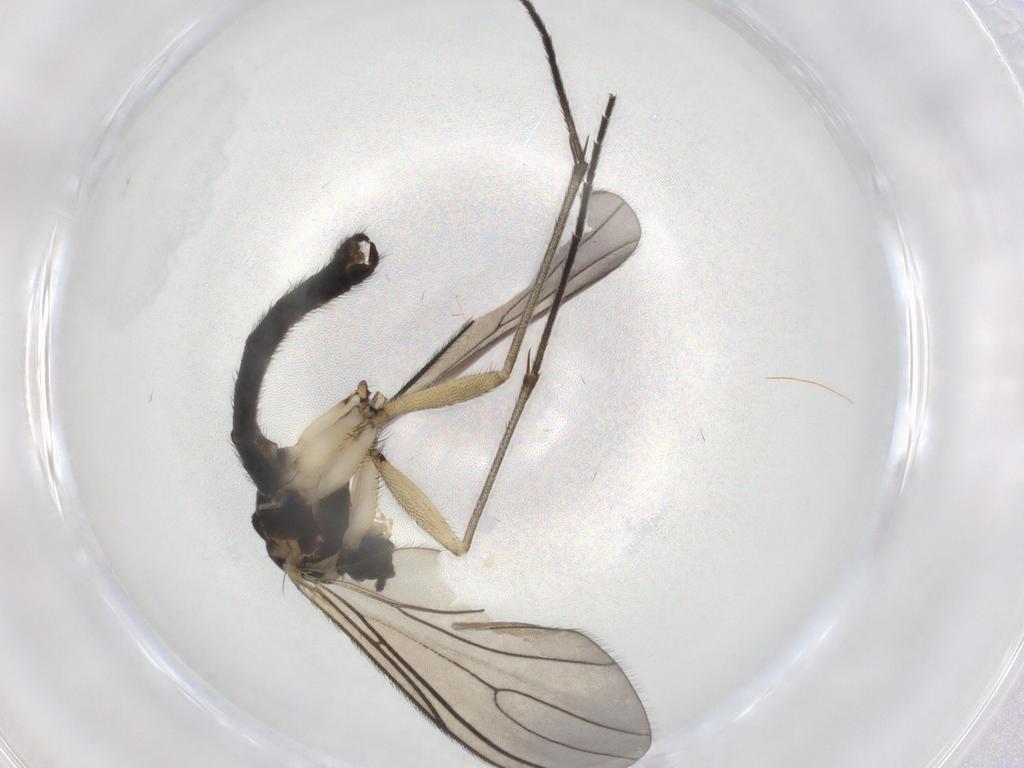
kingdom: Animalia
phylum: Arthropoda
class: Insecta
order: Diptera
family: Sciaridae
